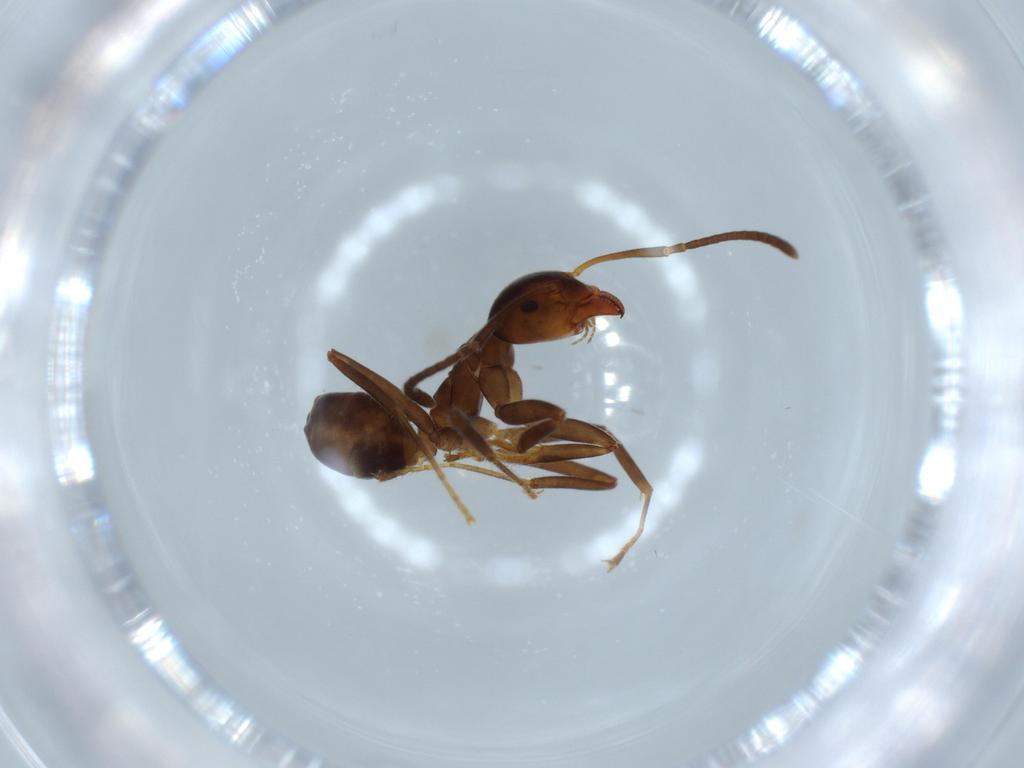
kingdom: Animalia
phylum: Arthropoda
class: Insecta
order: Hymenoptera
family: Formicidae
